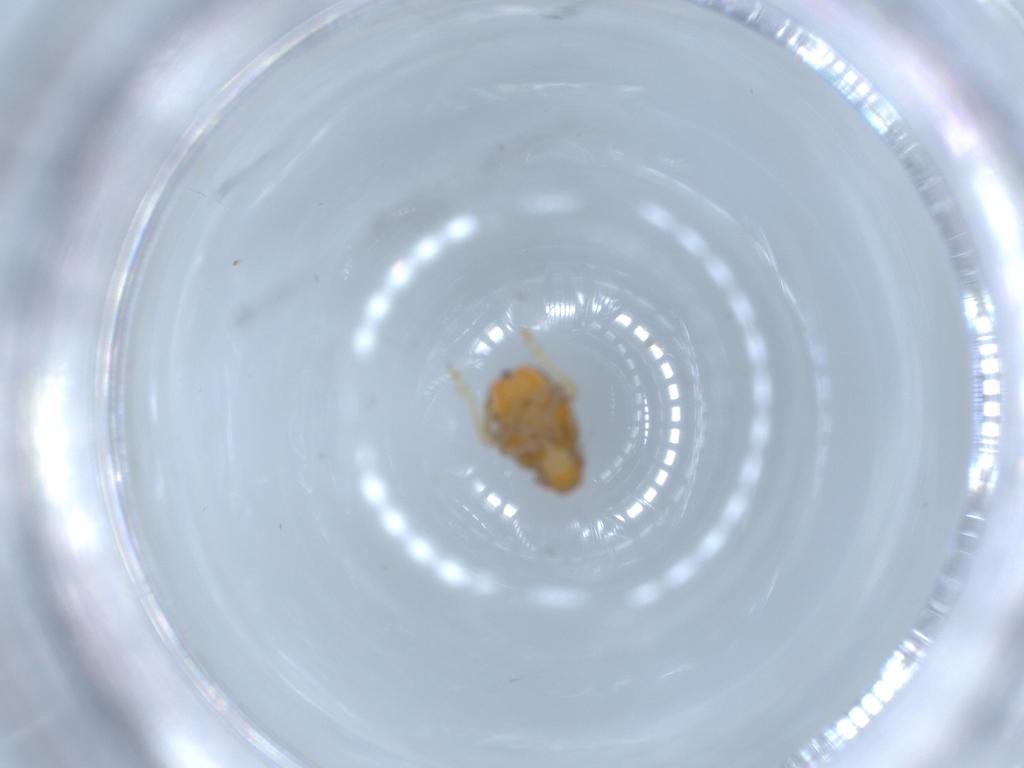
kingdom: Animalia
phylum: Arthropoda
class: Insecta
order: Hemiptera
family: Issidae
